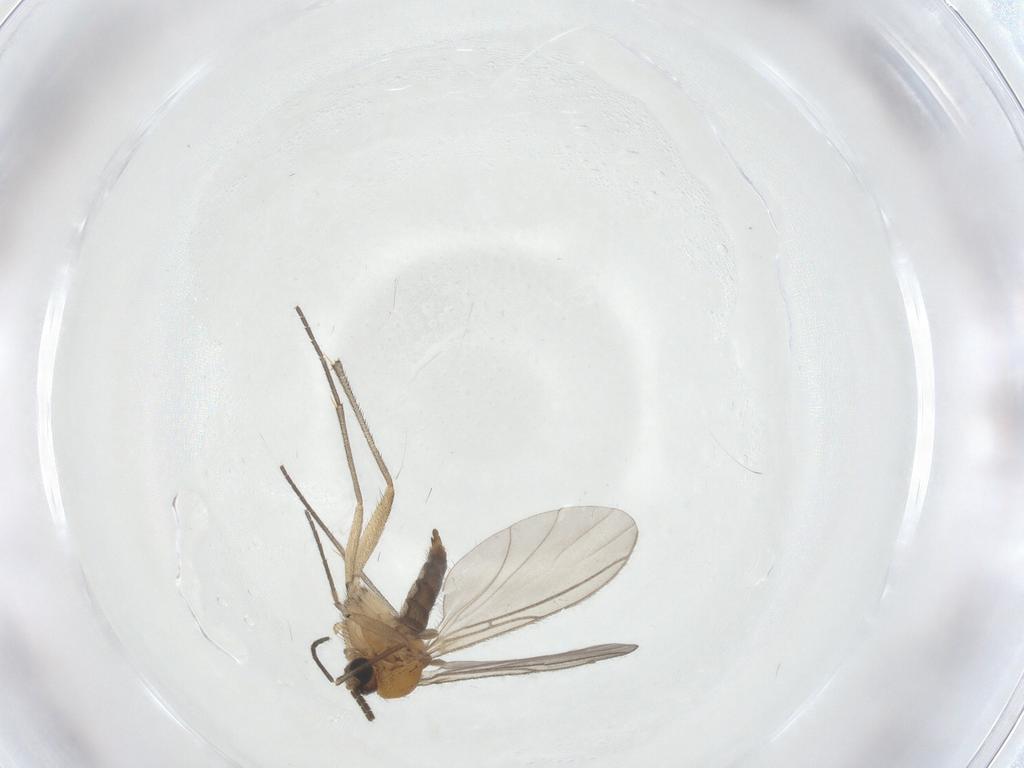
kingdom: Animalia
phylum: Arthropoda
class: Insecta
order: Diptera
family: Sciaridae
